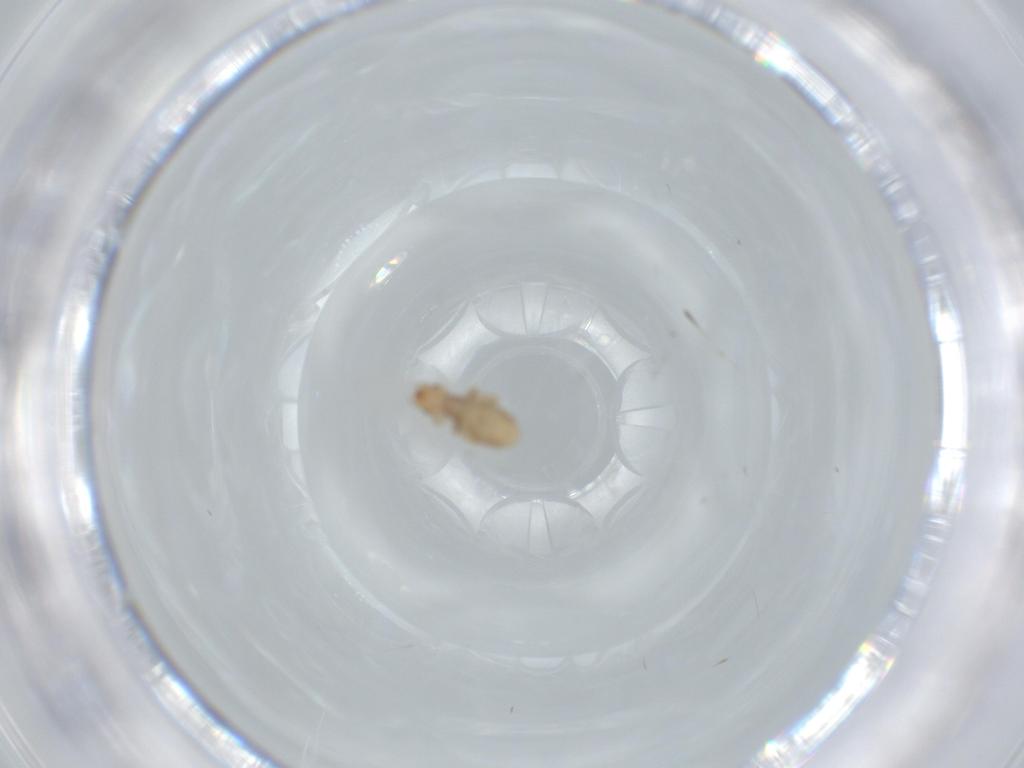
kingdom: Animalia
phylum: Arthropoda
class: Insecta
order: Psocodea
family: Liposcelididae
